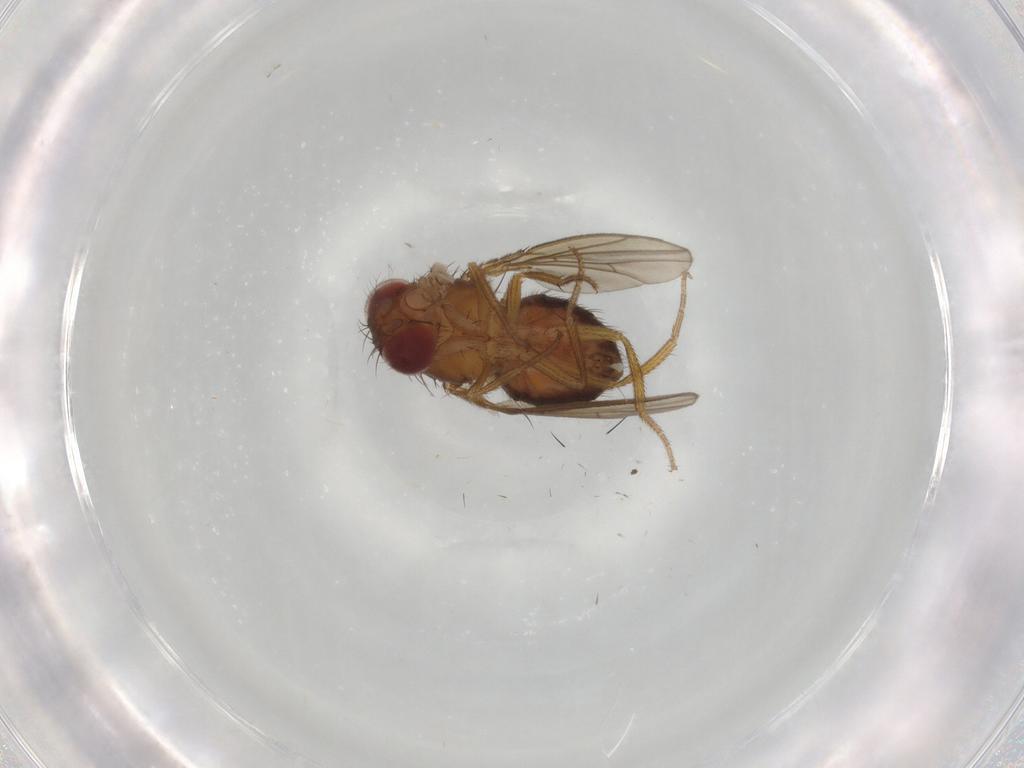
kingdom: Animalia
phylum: Arthropoda
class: Insecta
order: Diptera
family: Drosophilidae
